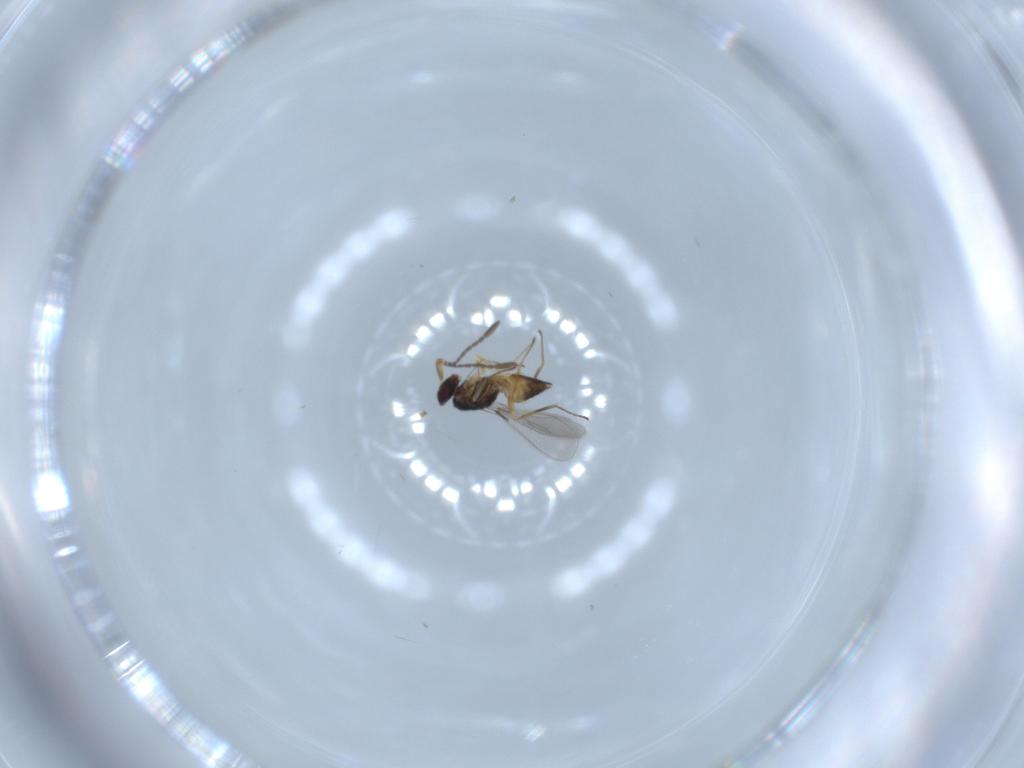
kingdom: Animalia
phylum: Arthropoda
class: Insecta
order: Hymenoptera
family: Mymaridae
